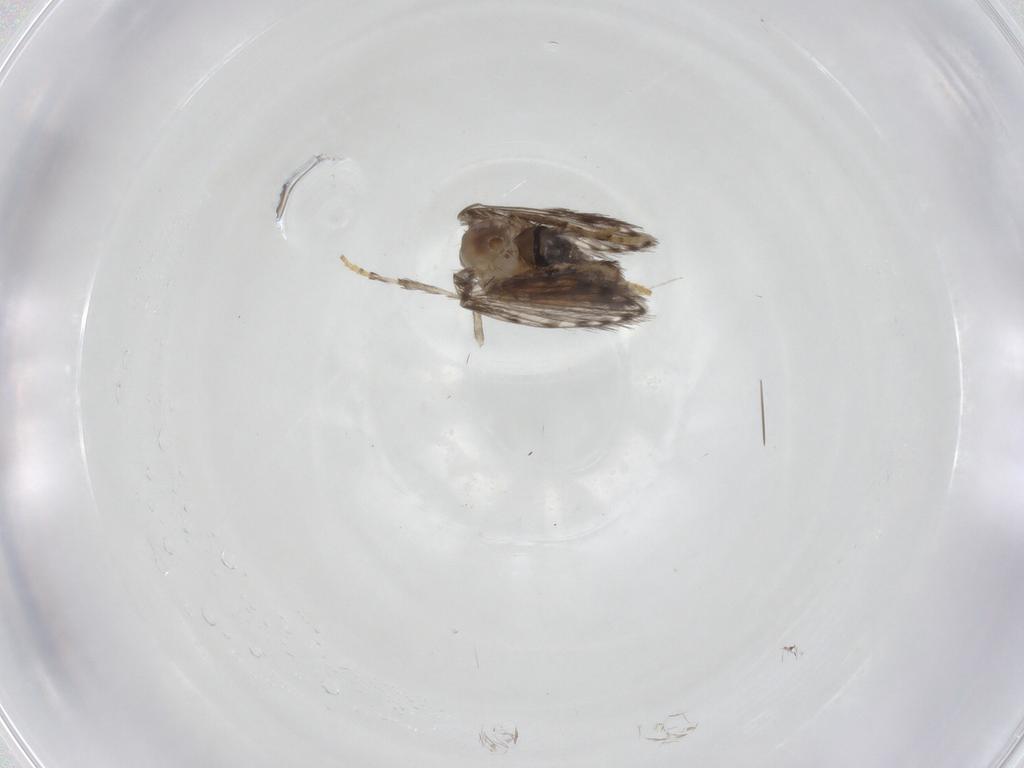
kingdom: Animalia
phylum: Arthropoda
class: Insecta
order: Diptera
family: Psychodidae
